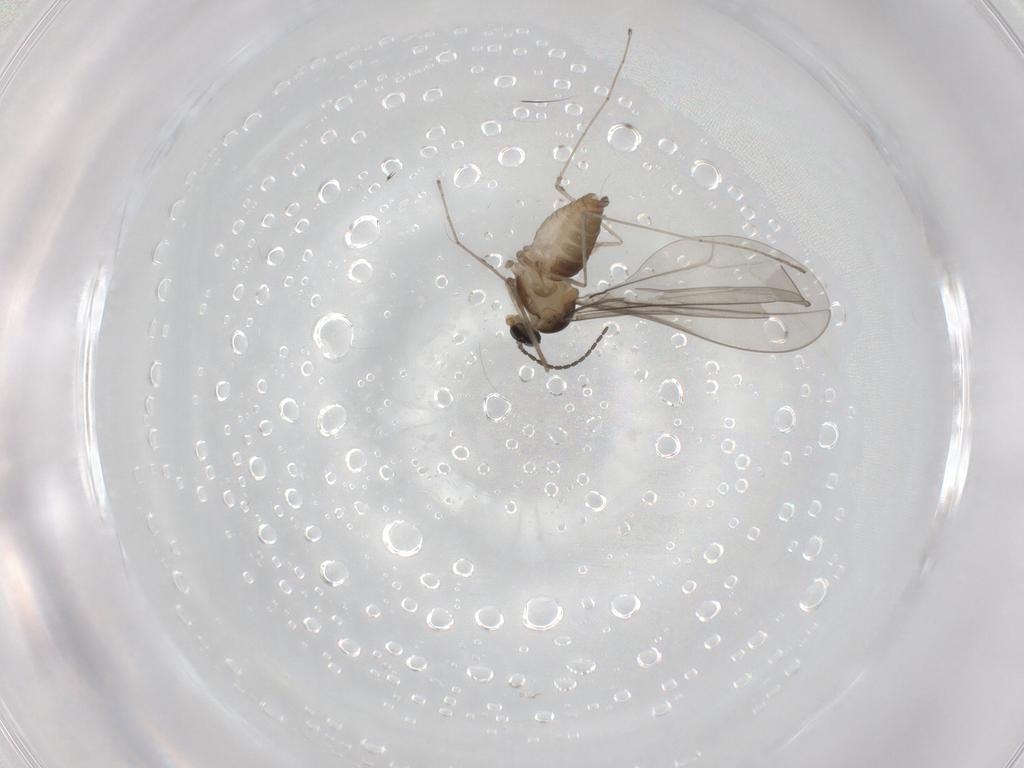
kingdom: Animalia
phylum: Arthropoda
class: Insecta
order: Diptera
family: Cecidomyiidae
